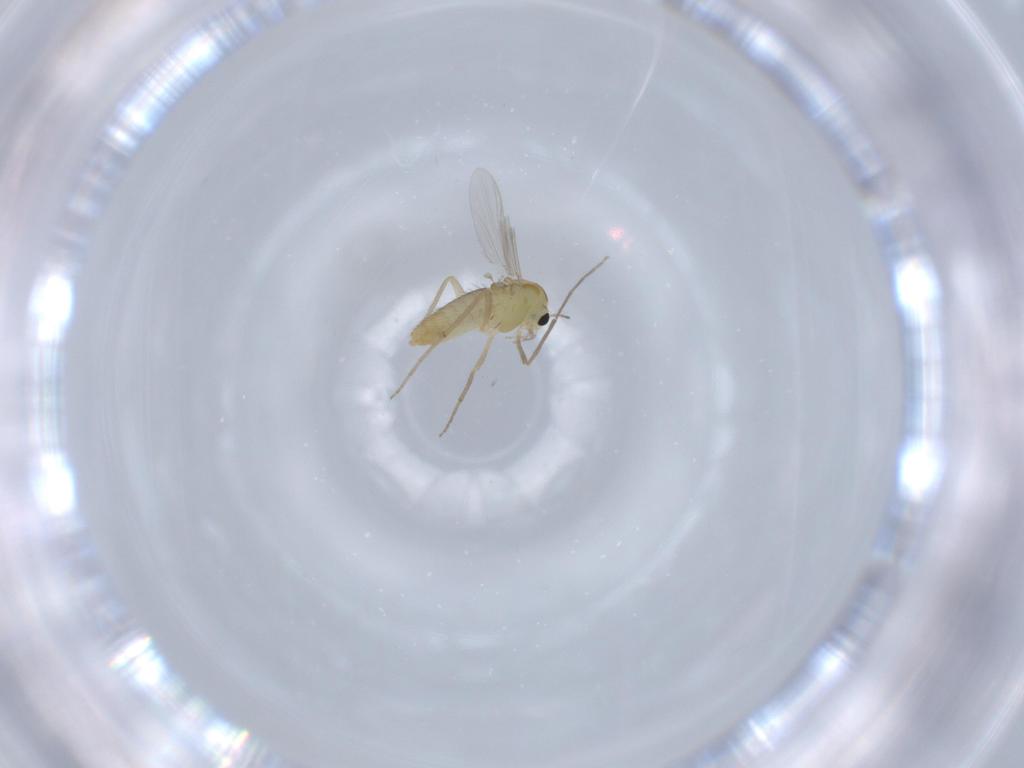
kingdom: Animalia
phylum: Arthropoda
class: Insecta
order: Diptera
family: Chironomidae
